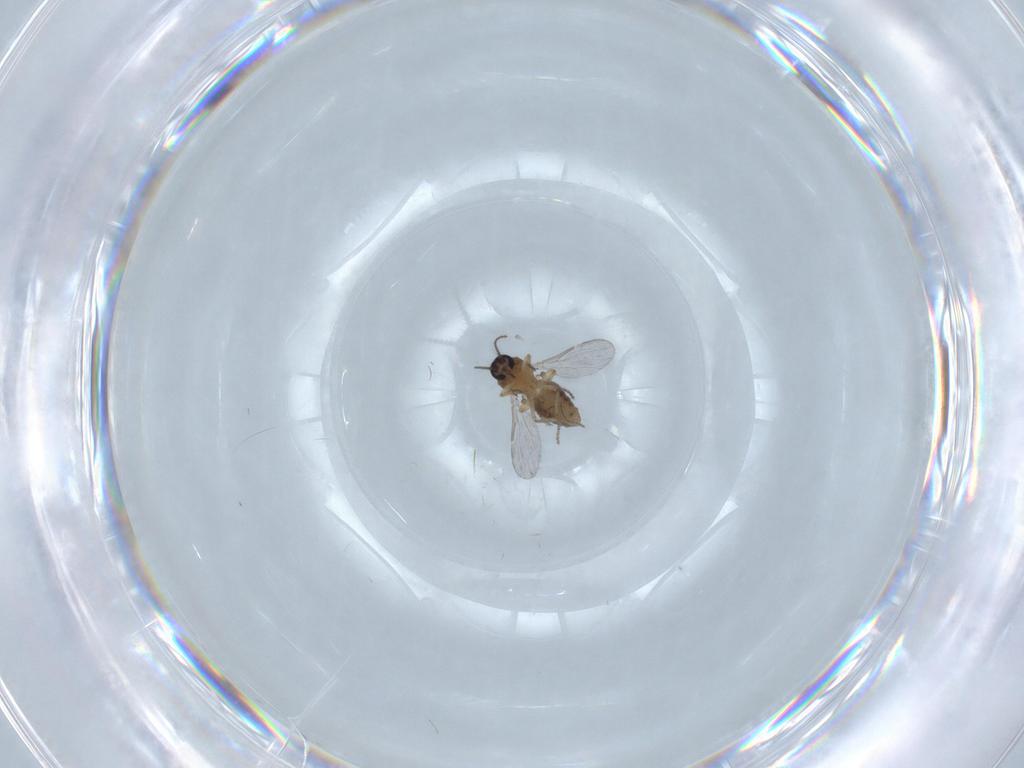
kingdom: Animalia
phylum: Arthropoda
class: Insecta
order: Diptera
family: Ceratopogonidae
